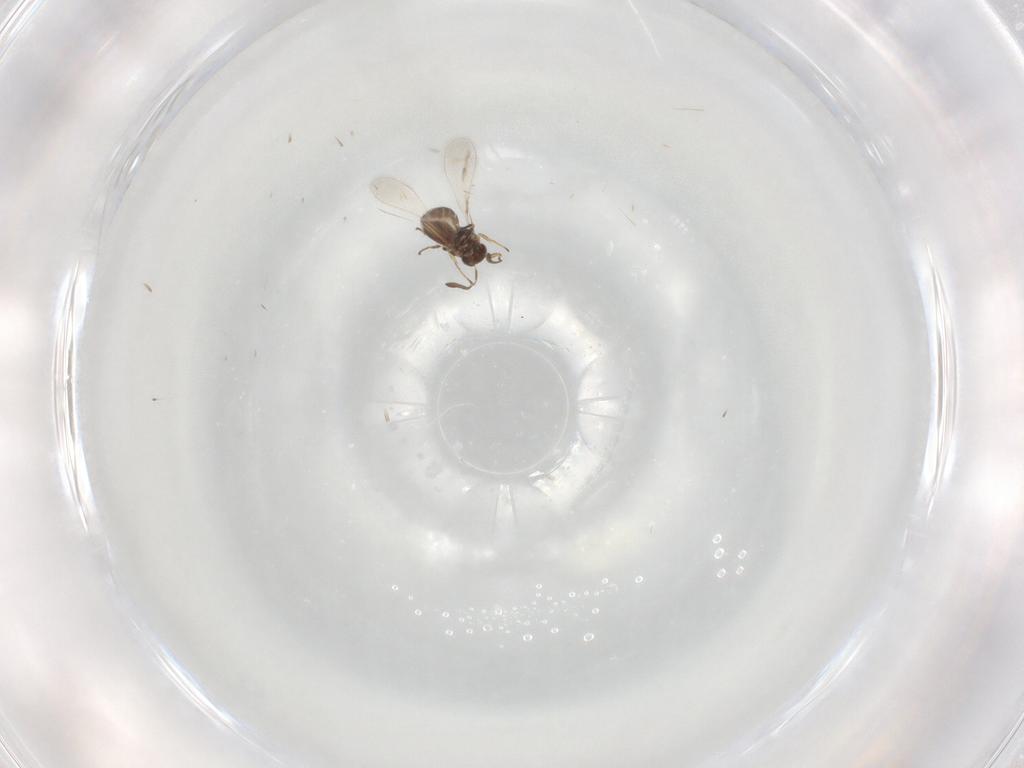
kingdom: Animalia
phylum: Arthropoda
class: Insecta
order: Hymenoptera
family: Mymaridae
